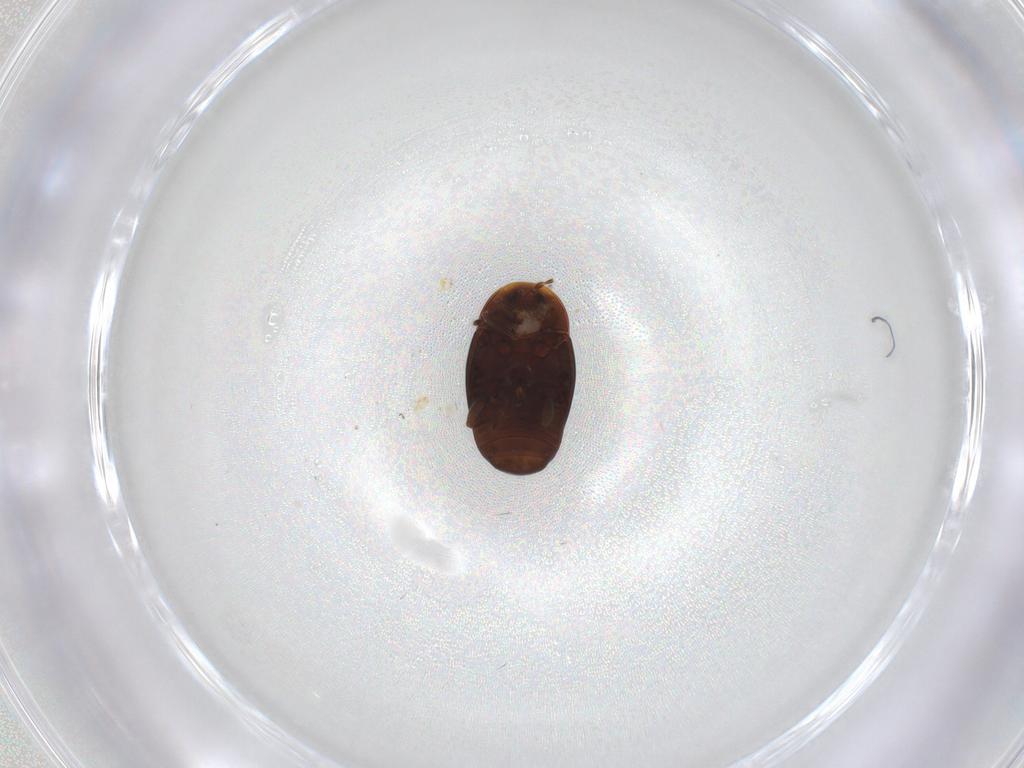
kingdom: Animalia
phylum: Arthropoda
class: Insecta
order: Coleoptera
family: Corylophidae
